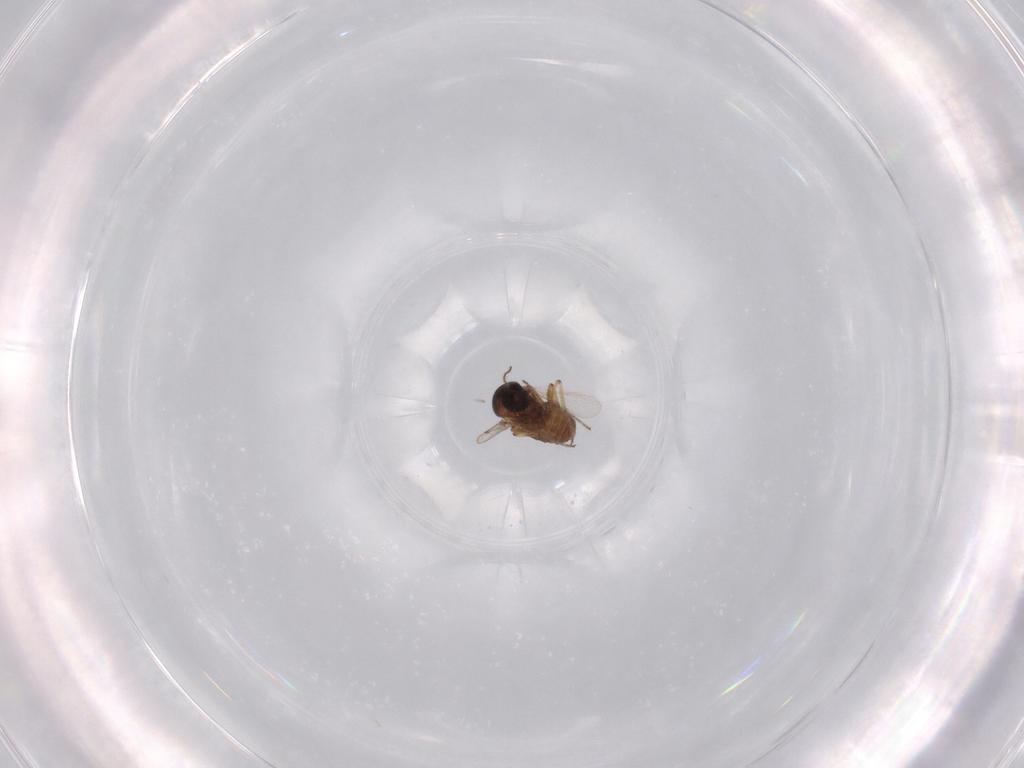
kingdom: Animalia
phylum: Arthropoda
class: Insecta
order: Diptera
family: Ceratopogonidae
